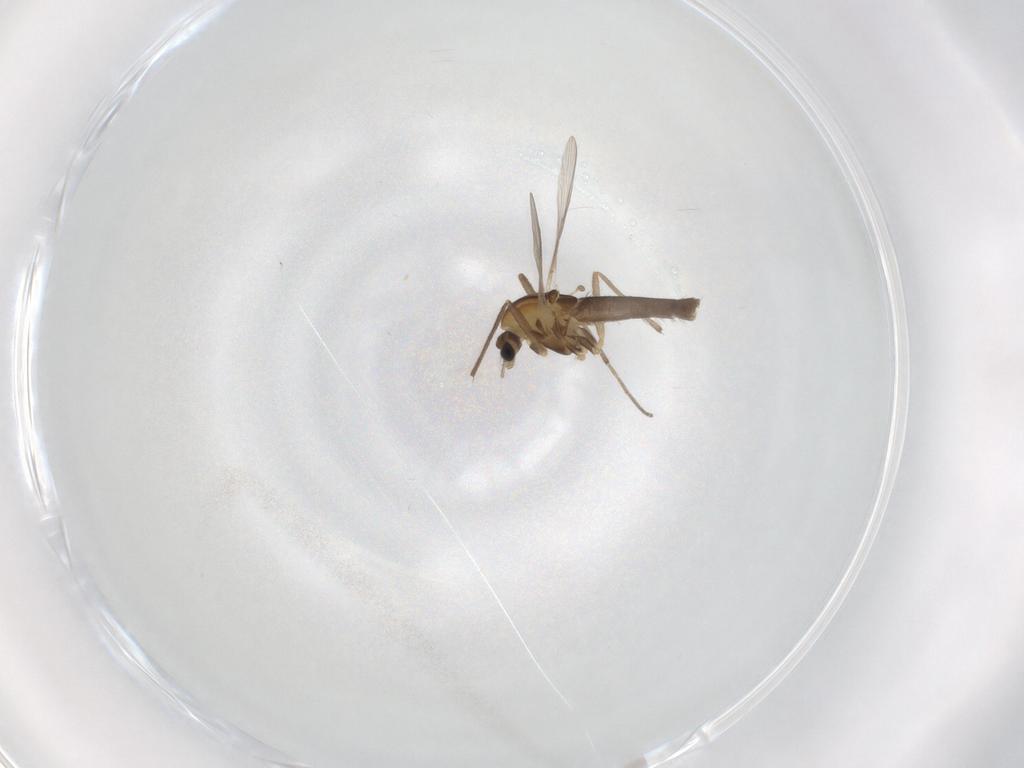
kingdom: Animalia
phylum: Arthropoda
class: Insecta
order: Diptera
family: Chironomidae
